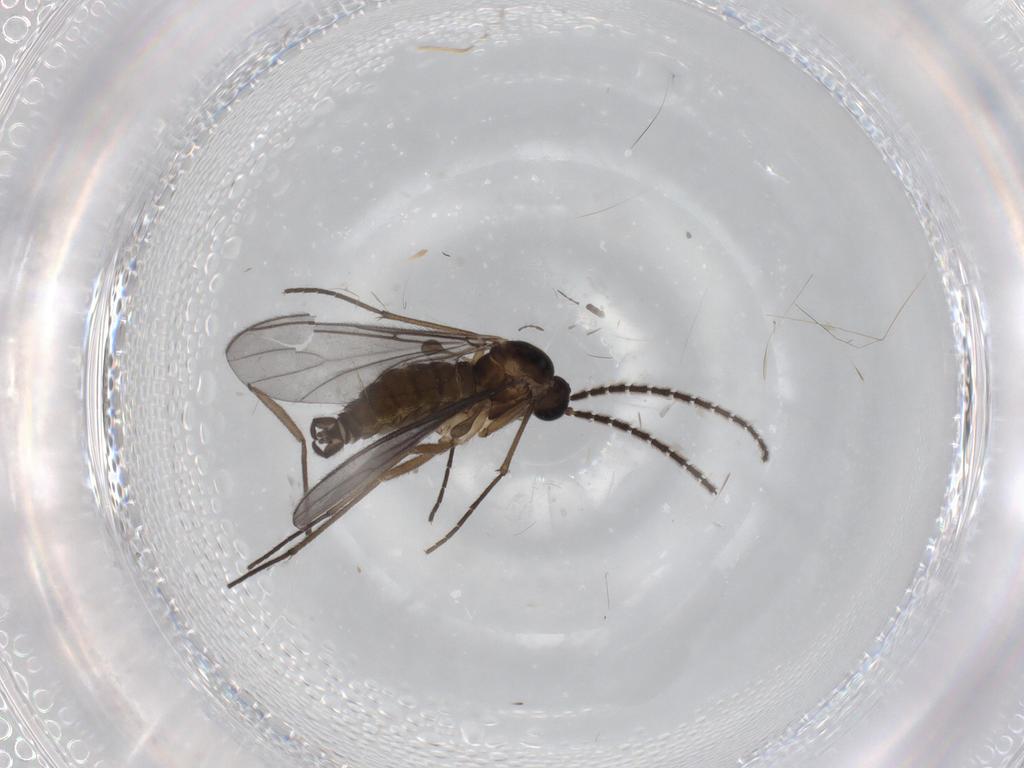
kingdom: Animalia
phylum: Arthropoda
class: Insecta
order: Diptera
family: Sciaridae
